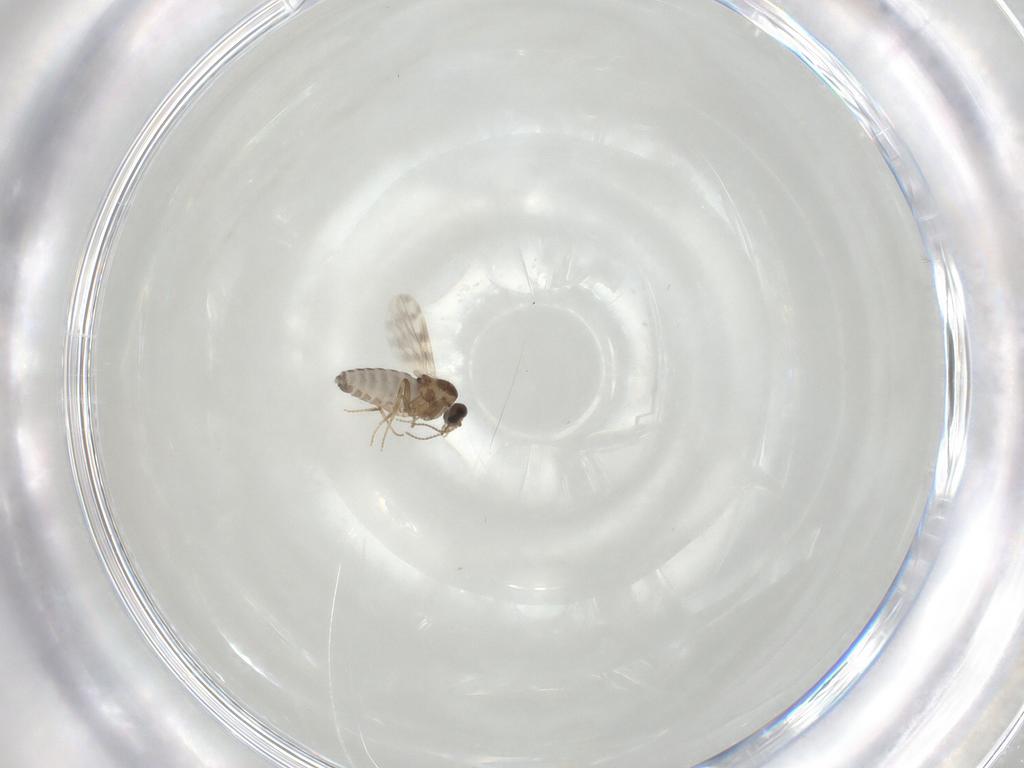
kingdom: Animalia
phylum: Arthropoda
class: Insecta
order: Diptera
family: Ceratopogonidae
